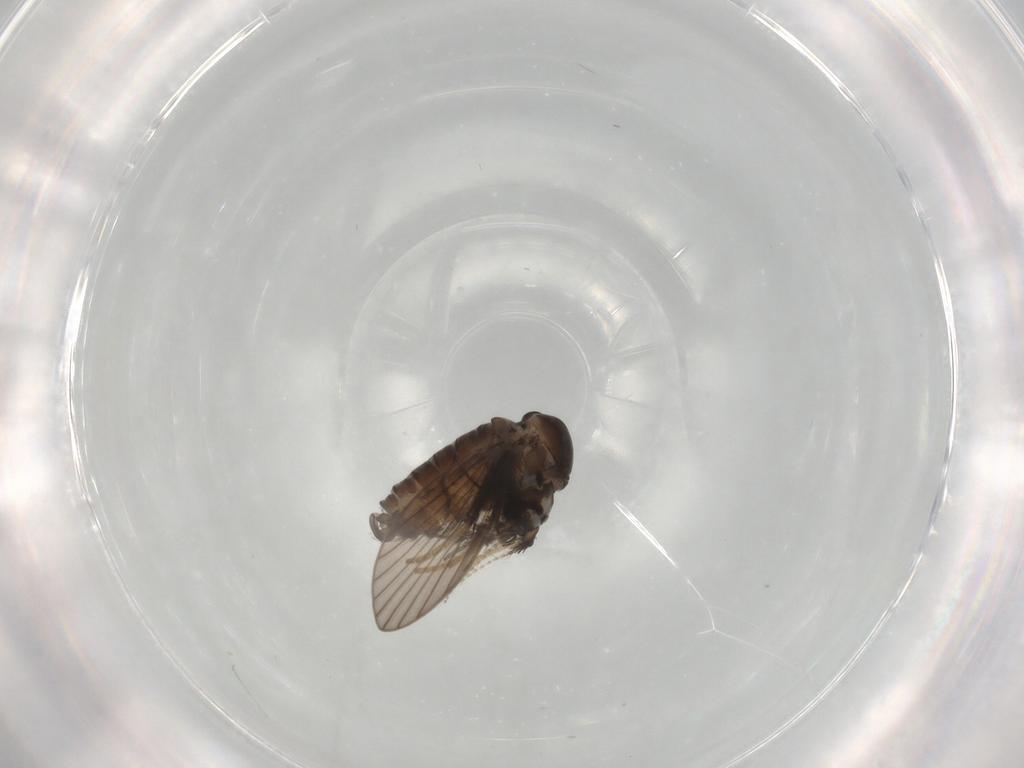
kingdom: Animalia
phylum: Arthropoda
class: Insecta
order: Diptera
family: Psychodidae
